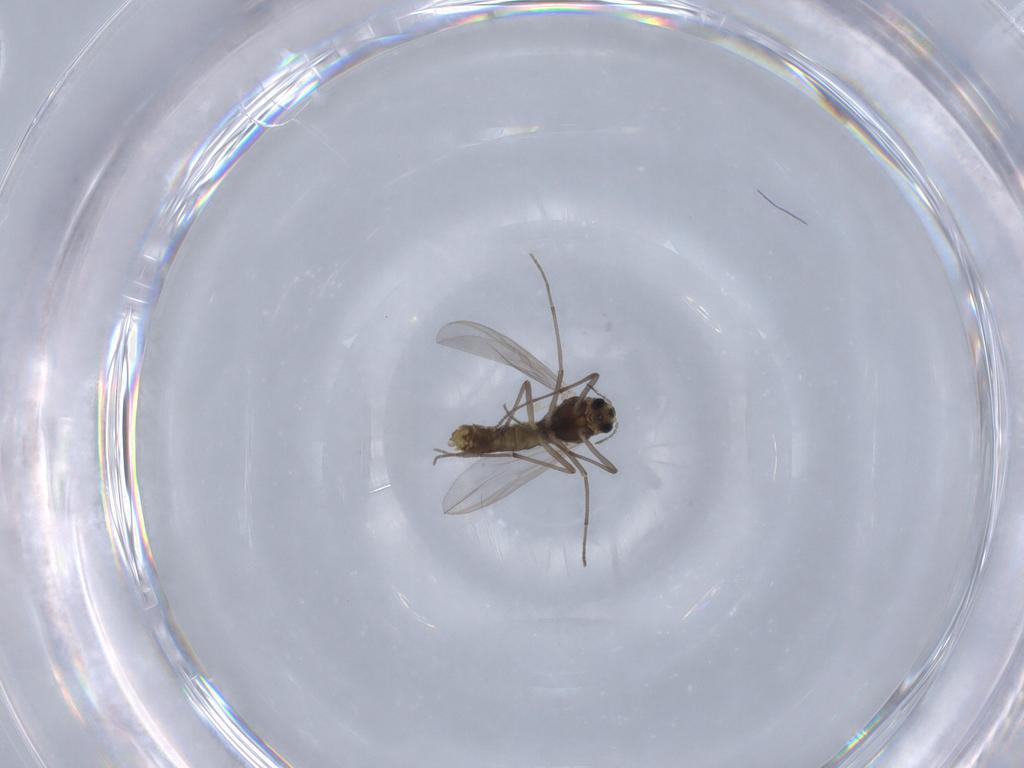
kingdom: Animalia
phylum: Arthropoda
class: Insecta
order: Diptera
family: Chironomidae
